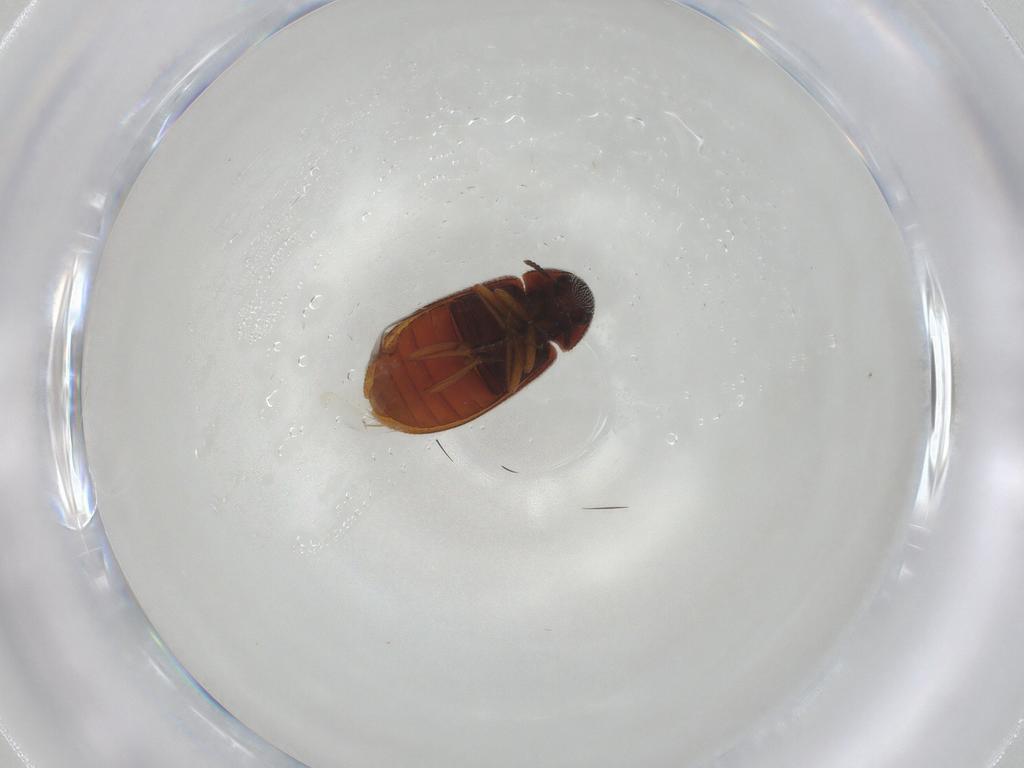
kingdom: Animalia
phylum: Arthropoda
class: Insecta
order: Coleoptera
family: Rhadalidae
